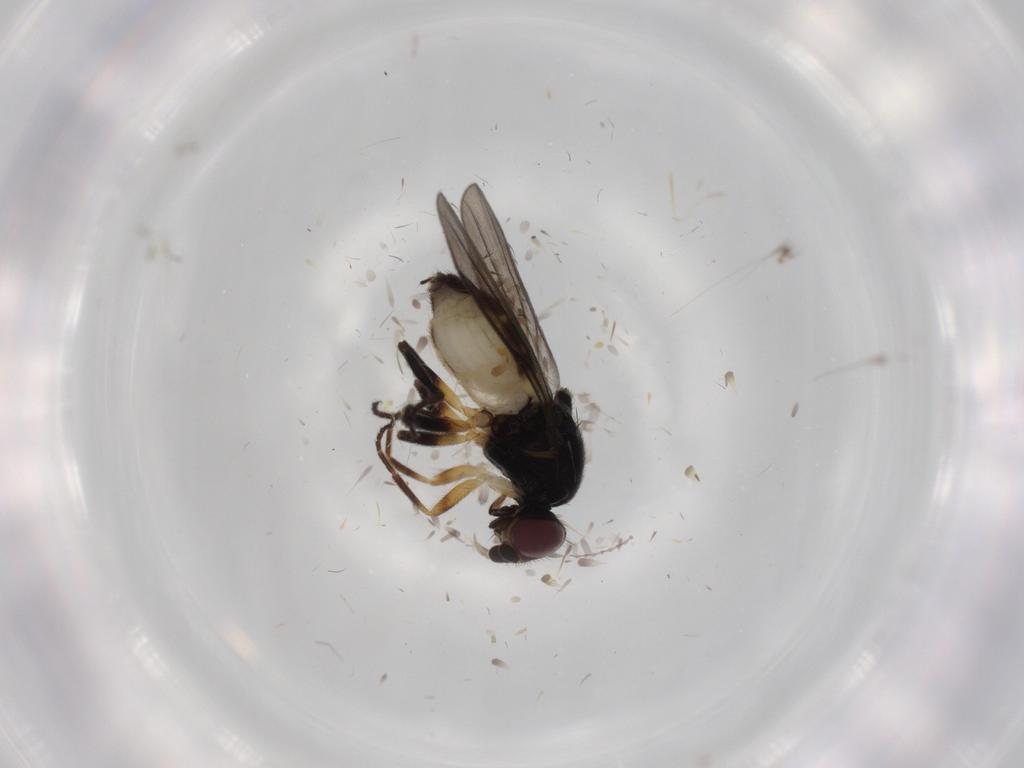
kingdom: Animalia
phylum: Arthropoda
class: Insecta
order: Diptera
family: Chloropidae
